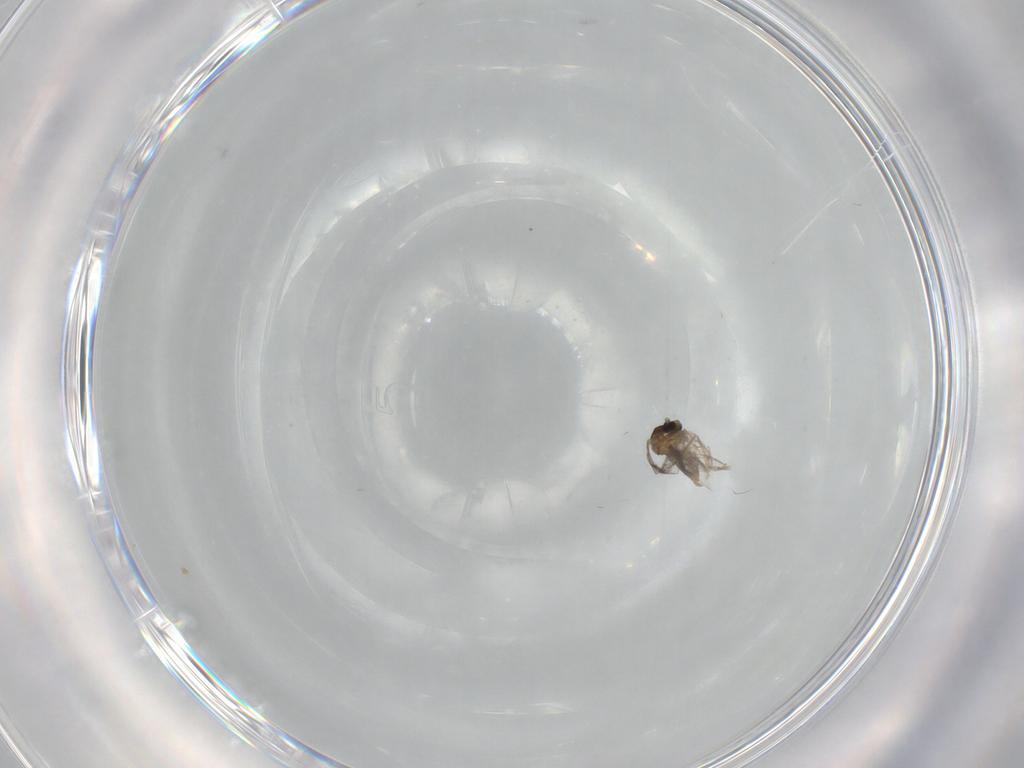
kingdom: Animalia
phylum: Arthropoda
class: Insecta
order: Diptera
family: Cecidomyiidae
